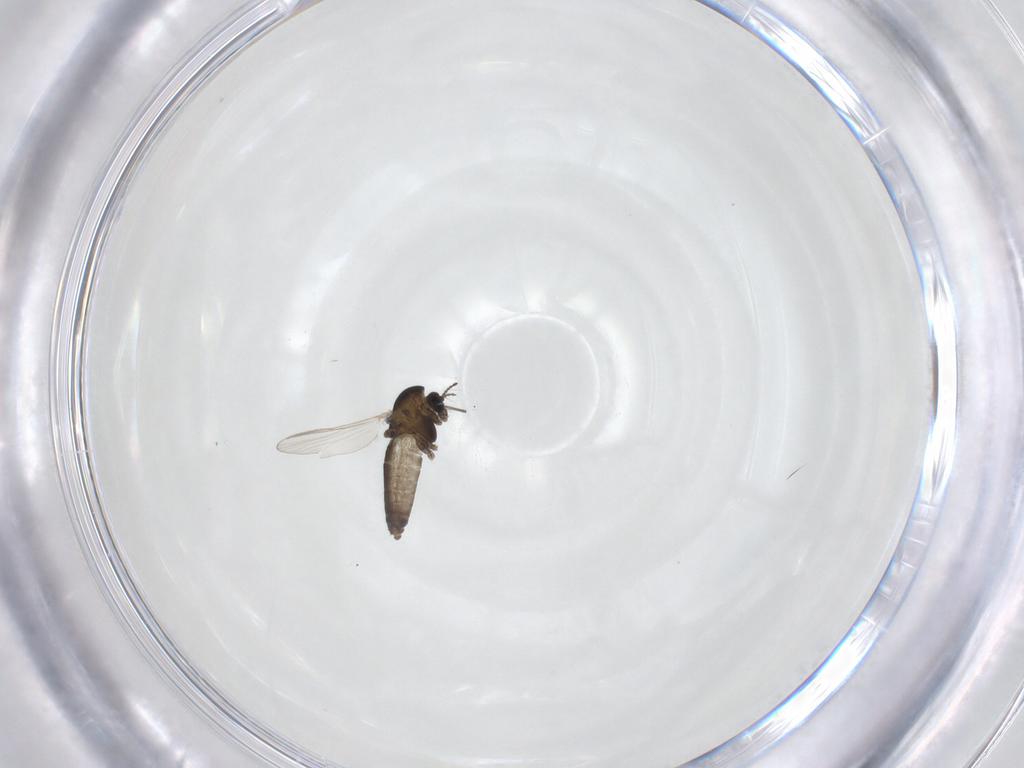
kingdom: Animalia
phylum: Arthropoda
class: Insecta
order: Diptera
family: Chironomidae
